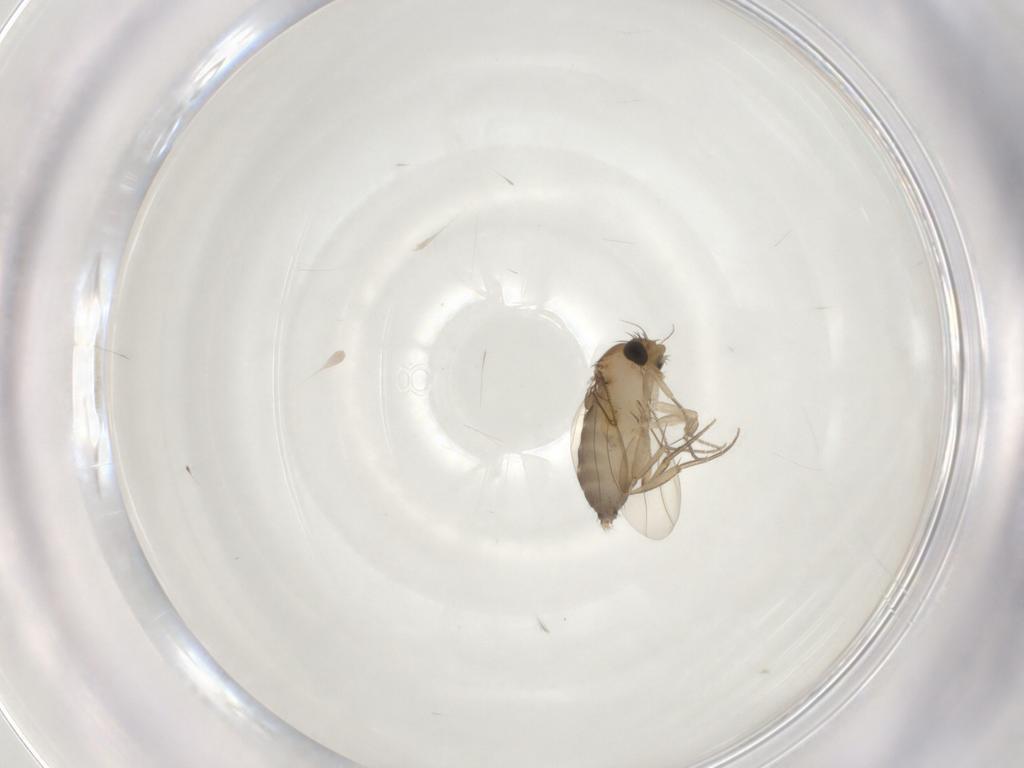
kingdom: Animalia
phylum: Arthropoda
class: Insecta
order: Diptera
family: Phoridae
